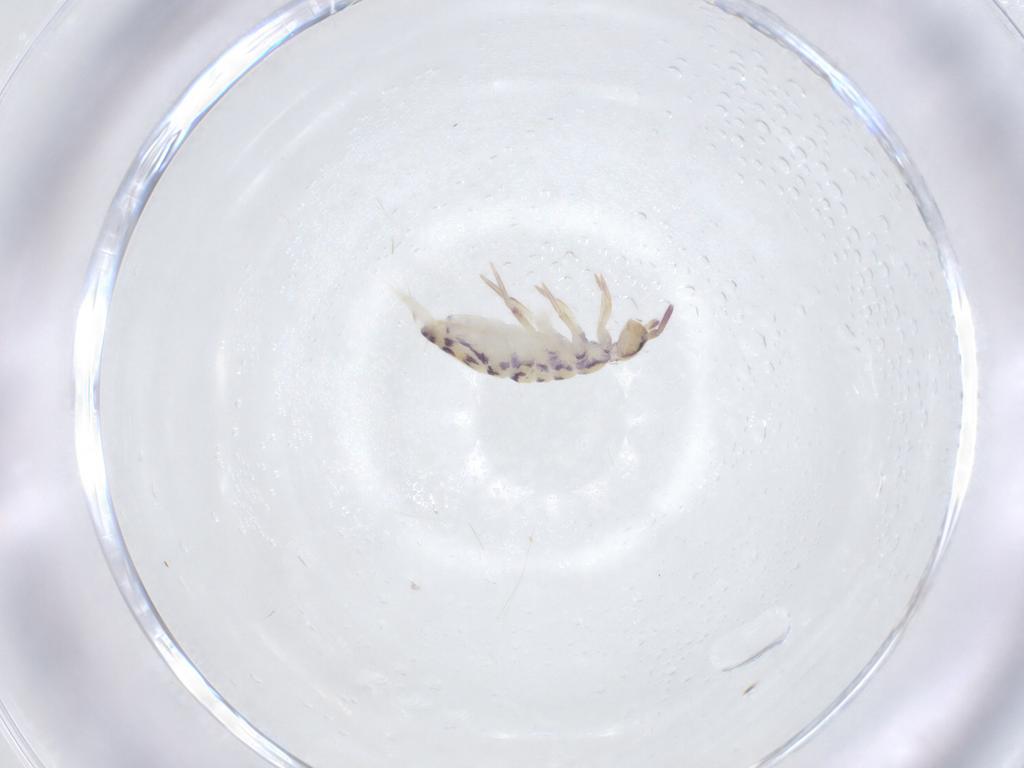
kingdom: Animalia
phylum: Arthropoda
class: Collembola
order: Entomobryomorpha
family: Entomobryidae
